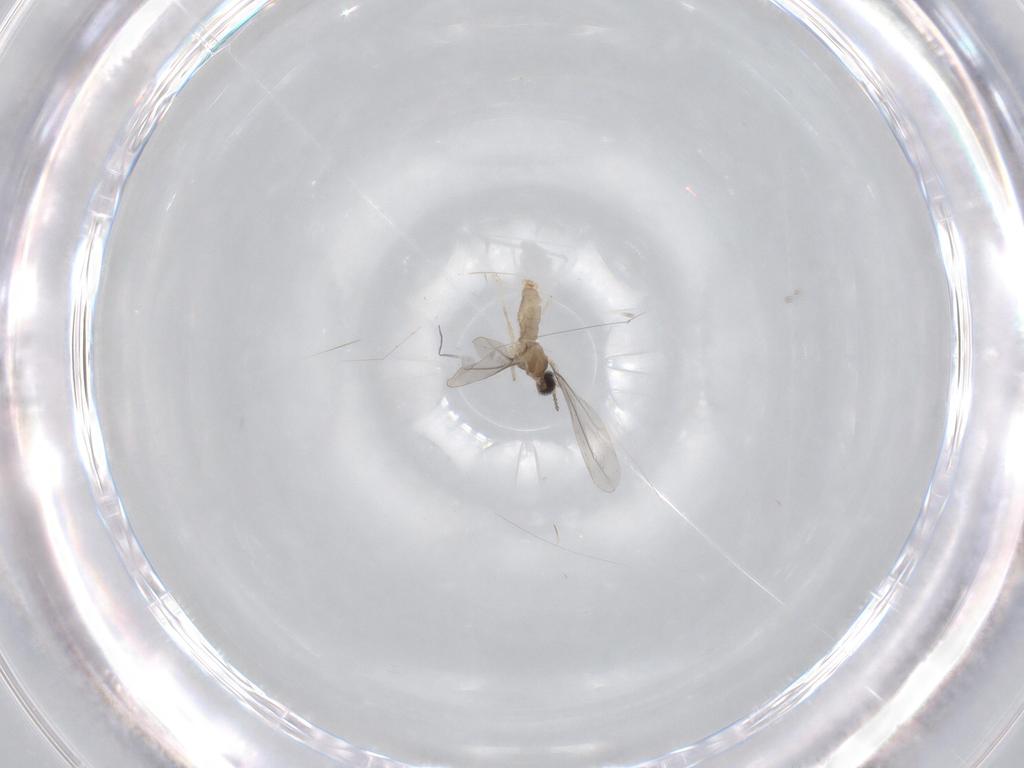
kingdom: Animalia
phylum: Arthropoda
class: Insecta
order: Diptera
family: Cecidomyiidae
